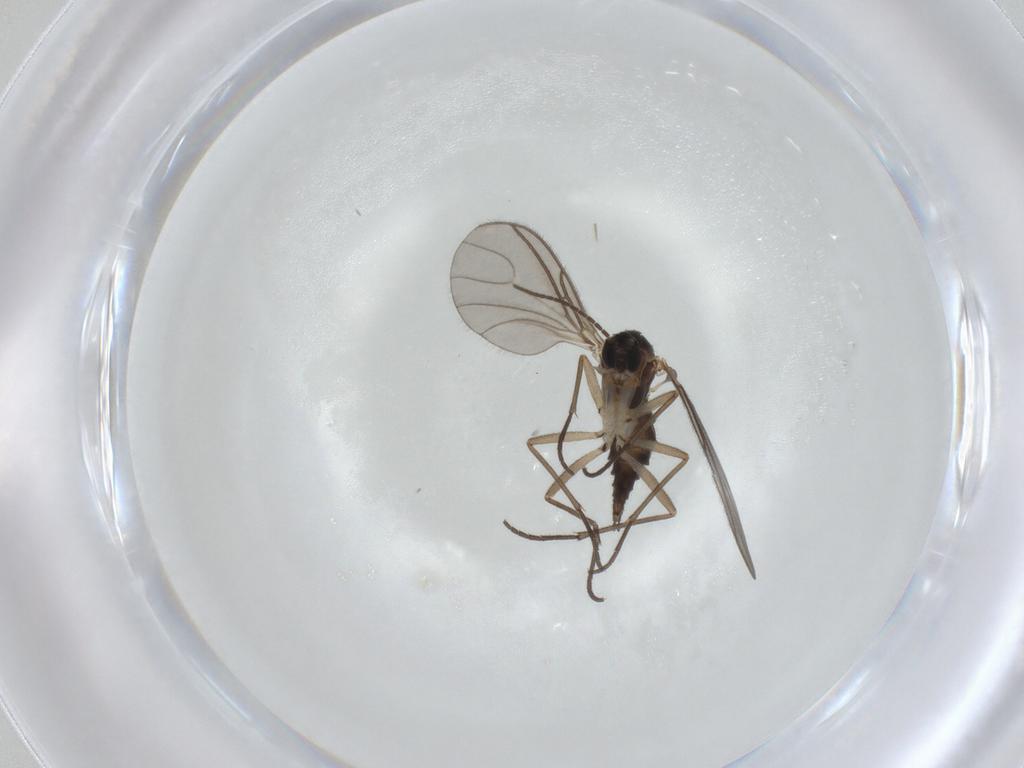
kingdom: Animalia
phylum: Arthropoda
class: Insecta
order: Diptera
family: Sciaridae
